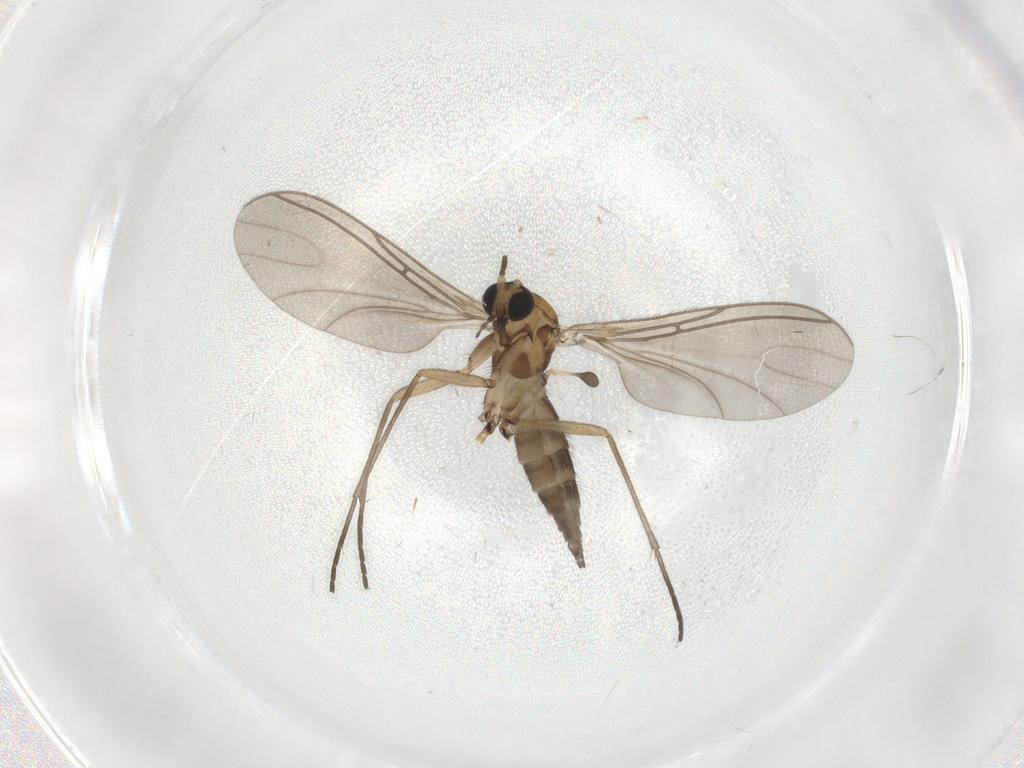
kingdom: Animalia
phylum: Arthropoda
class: Insecta
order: Diptera
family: Sciaridae
